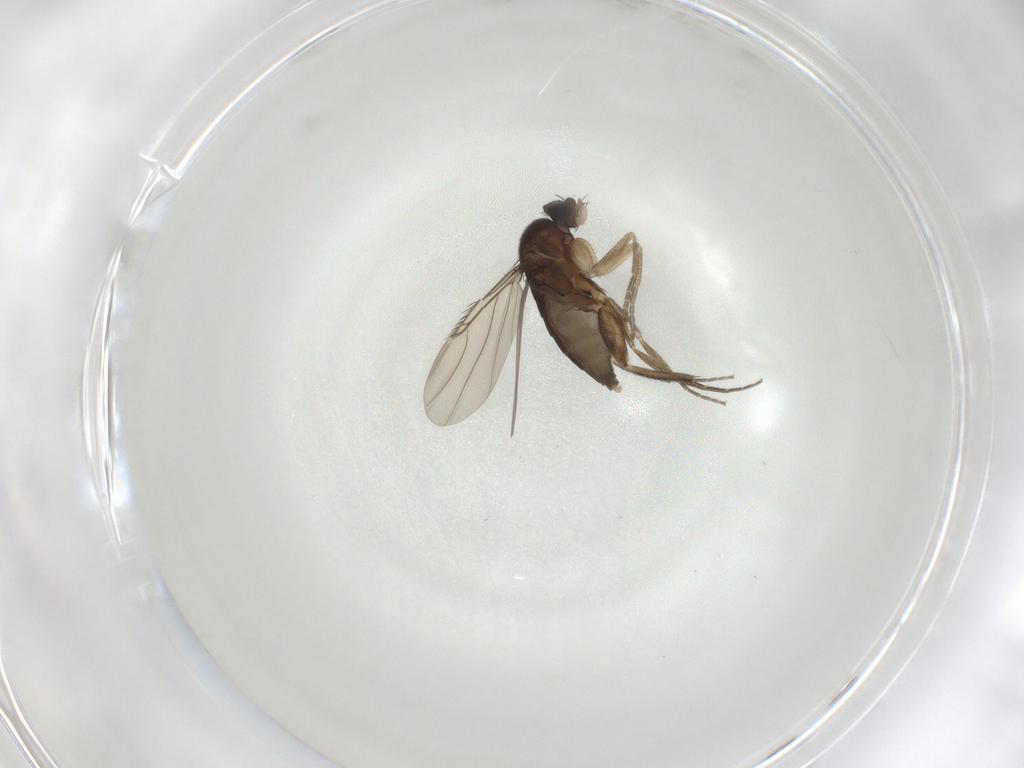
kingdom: Animalia
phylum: Arthropoda
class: Insecta
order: Diptera
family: Phoridae
